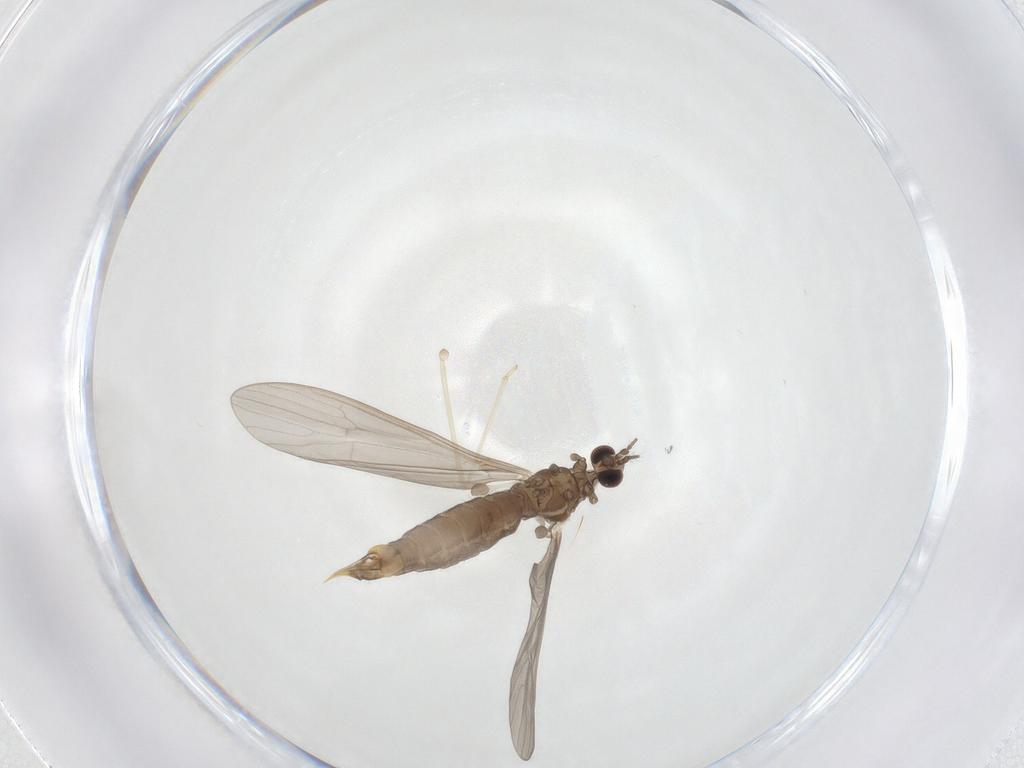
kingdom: Animalia
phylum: Arthropoda
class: Insecta
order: Diptera
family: Limoniidae
